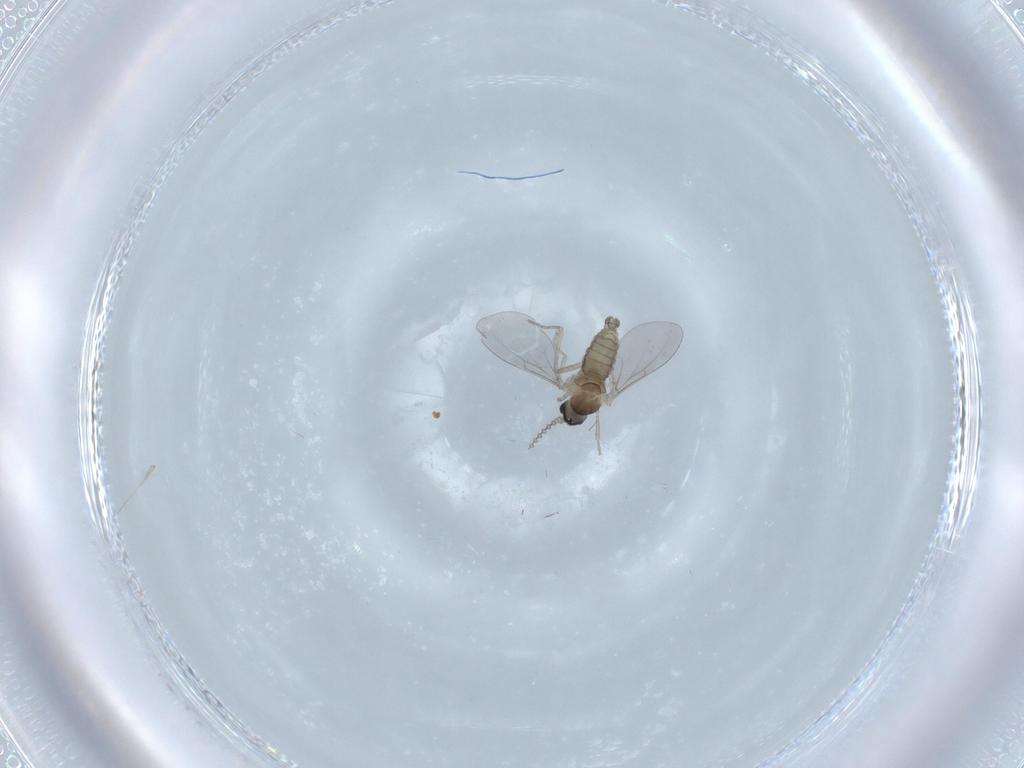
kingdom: Animalia
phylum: Arthropoda
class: Insecta
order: Diptera
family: Cecidomyiidae
